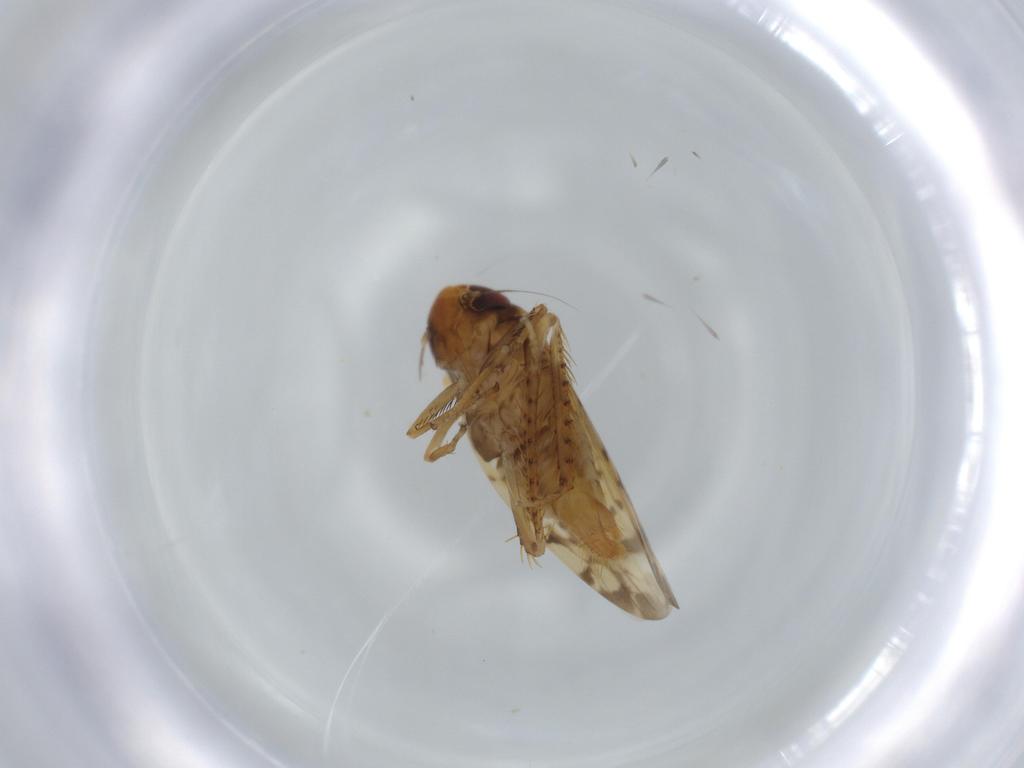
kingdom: Animalia
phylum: Arthropoda
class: Insecta
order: Hemiptera
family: Cicadellidae
